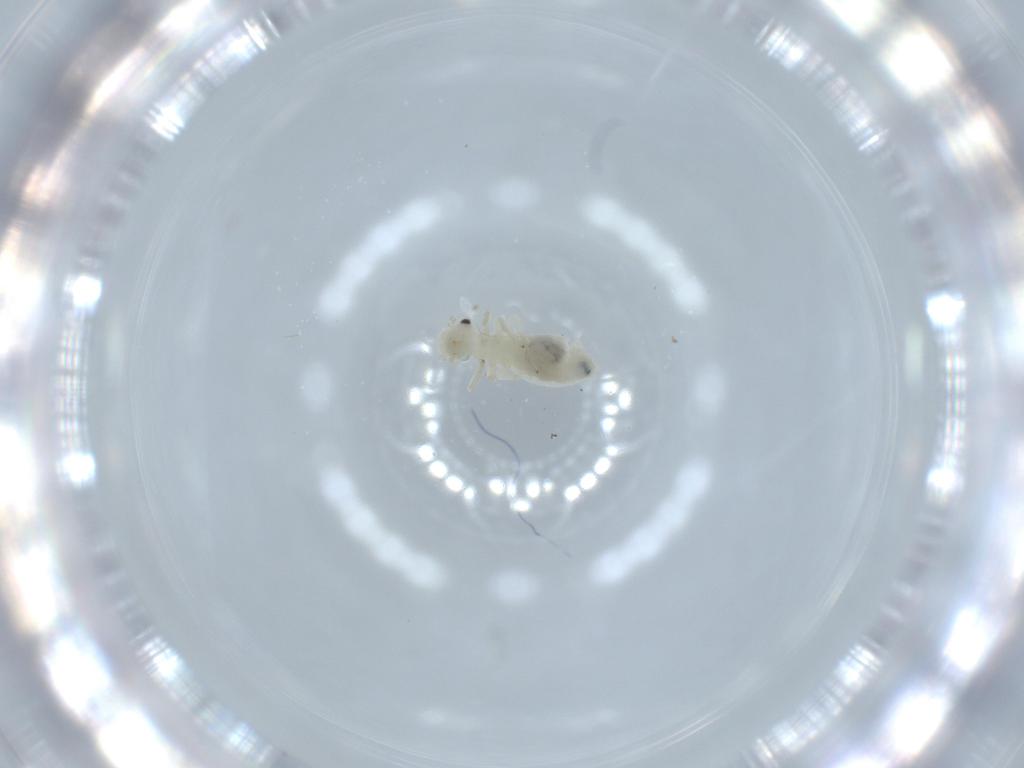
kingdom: Animalia
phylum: Arthropoda
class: Insecta
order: Psocodea
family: Caeciliusidae
